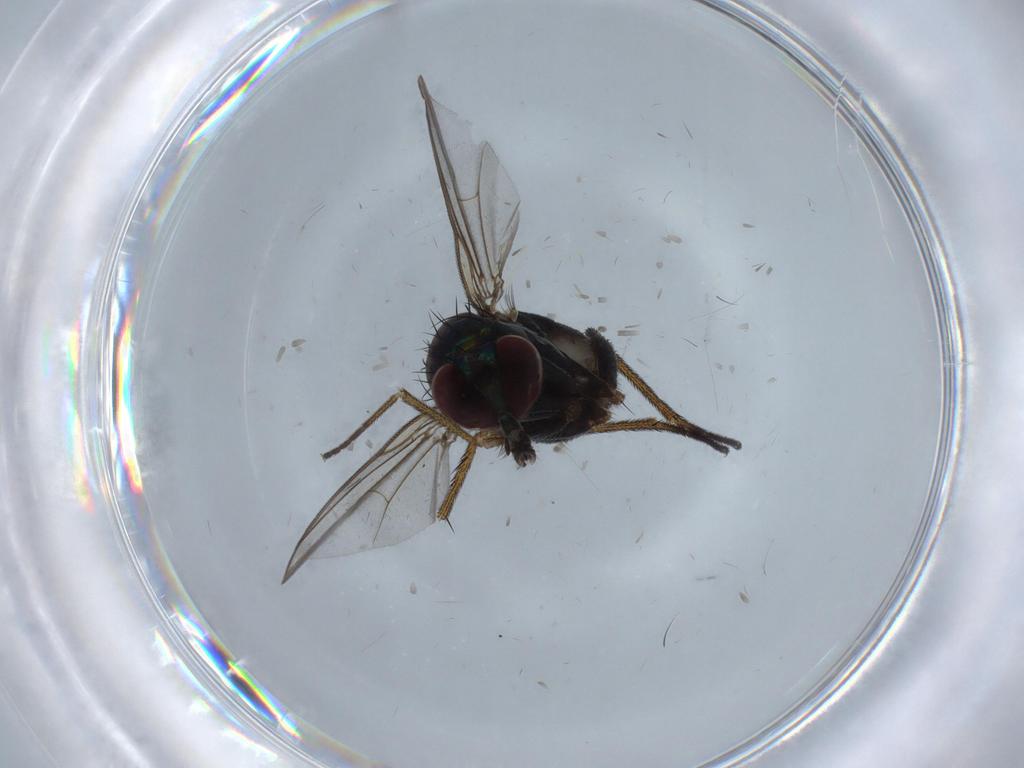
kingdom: Animalia
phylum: Arthropoda
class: Insecta
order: Diptera
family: Dolichopodidae
